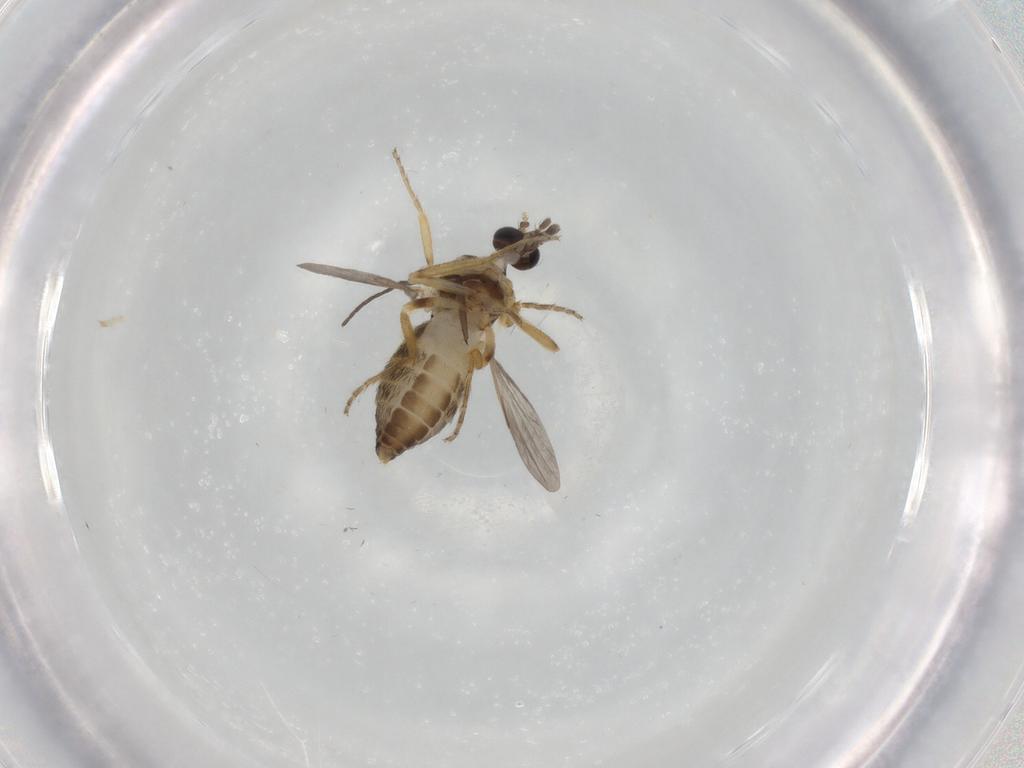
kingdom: Animalia
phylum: Arthropoda
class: Insecta
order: Diptera
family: Ceratopogonidae
